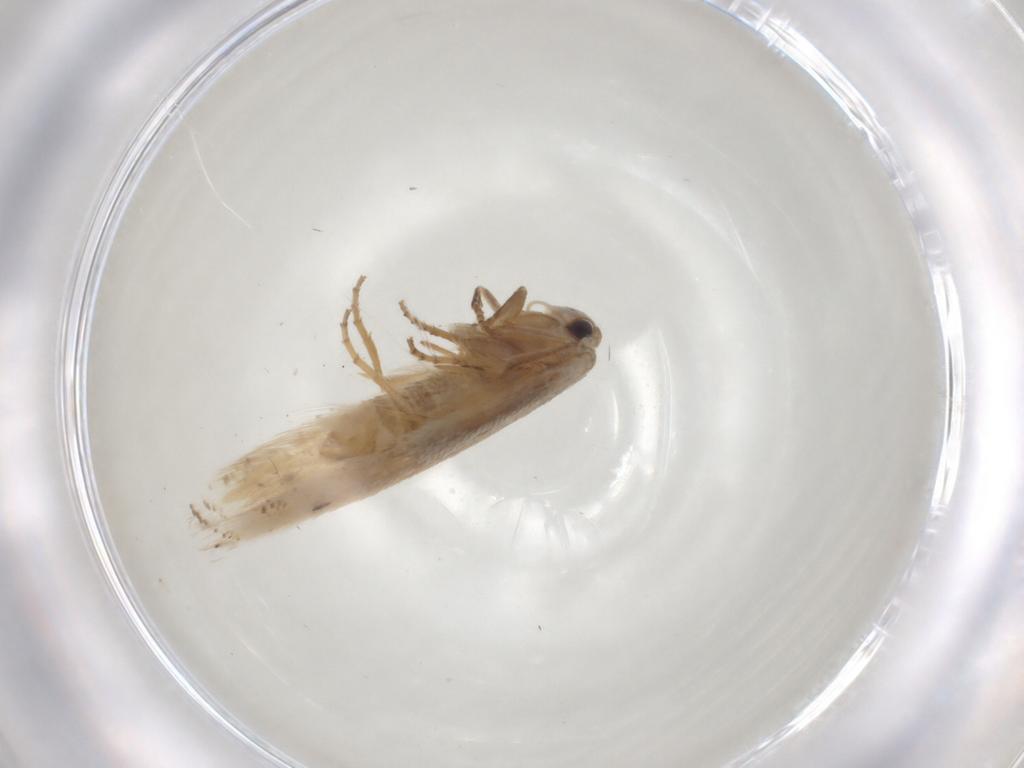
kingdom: Animalia
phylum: Arthropoda
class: Insecta
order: Lepidoptera
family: Bucculatricidae
